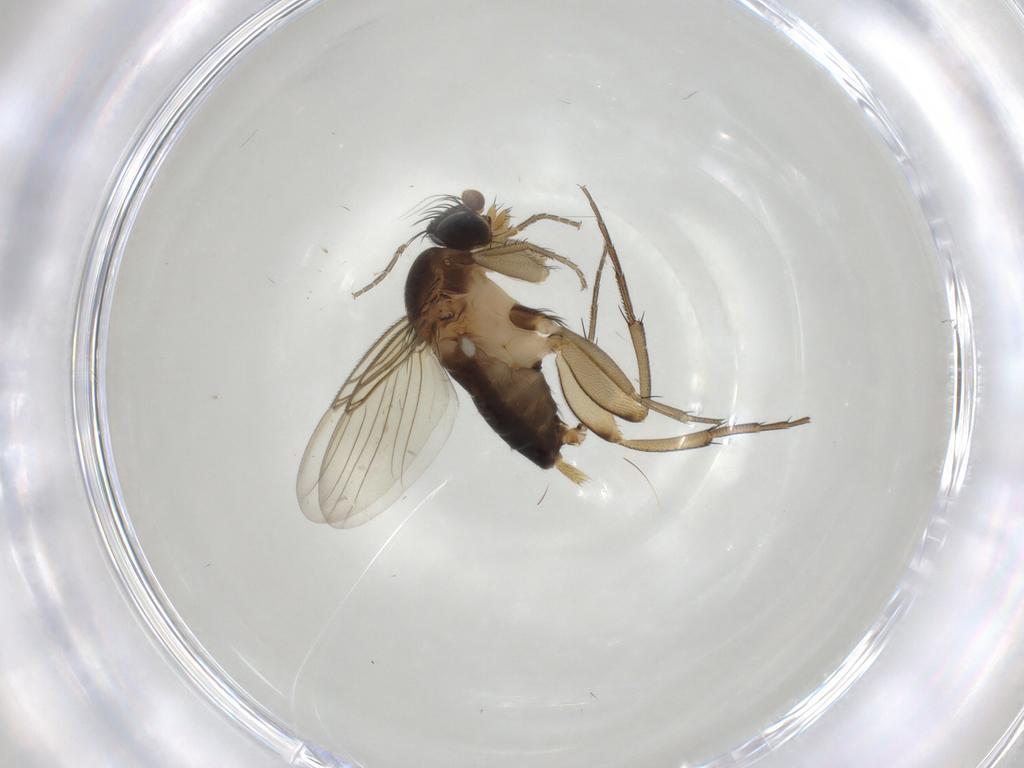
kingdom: Animalia
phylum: Arthropoda
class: Insecta
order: Diptera
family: Phoridae
